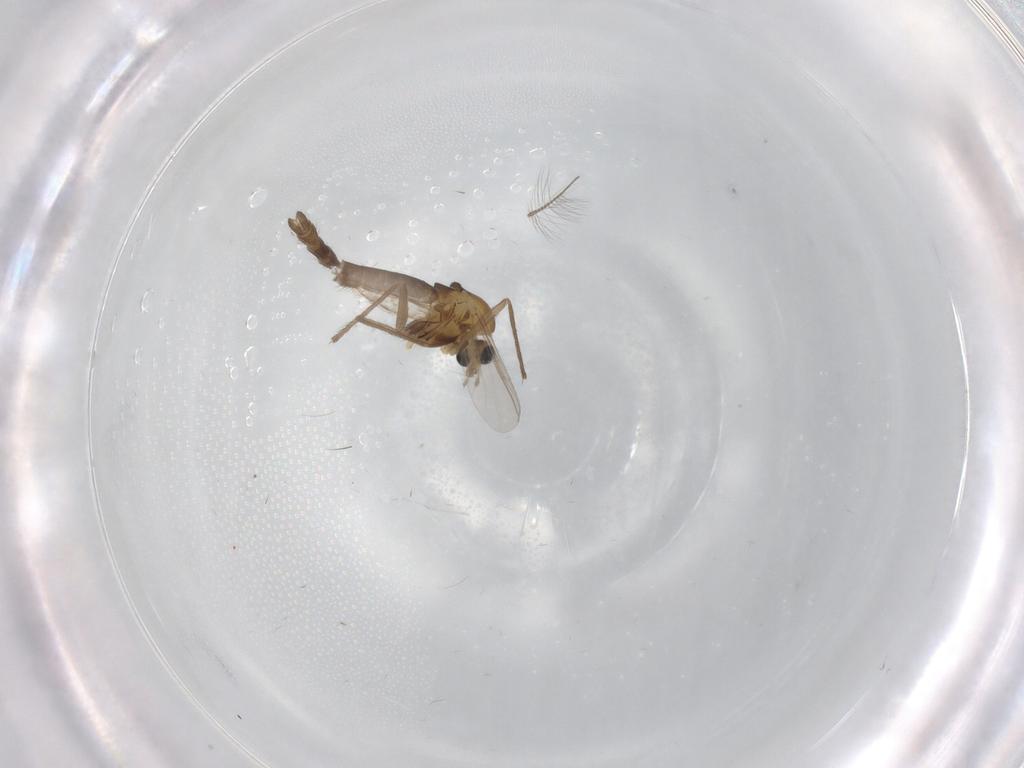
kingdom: Animalia
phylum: Arthropoda
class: Insecta
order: Diptera
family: Chironomidae
